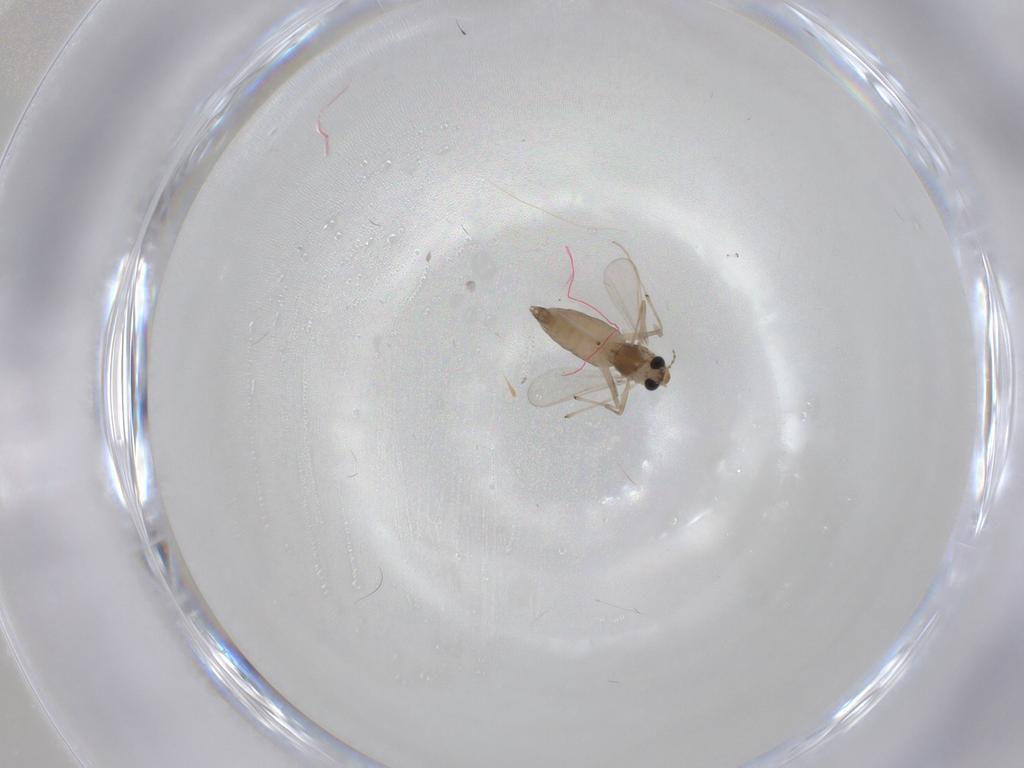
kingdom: Animalia
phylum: Arthropoda
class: Insecta
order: Diptera
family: Chironomidae
